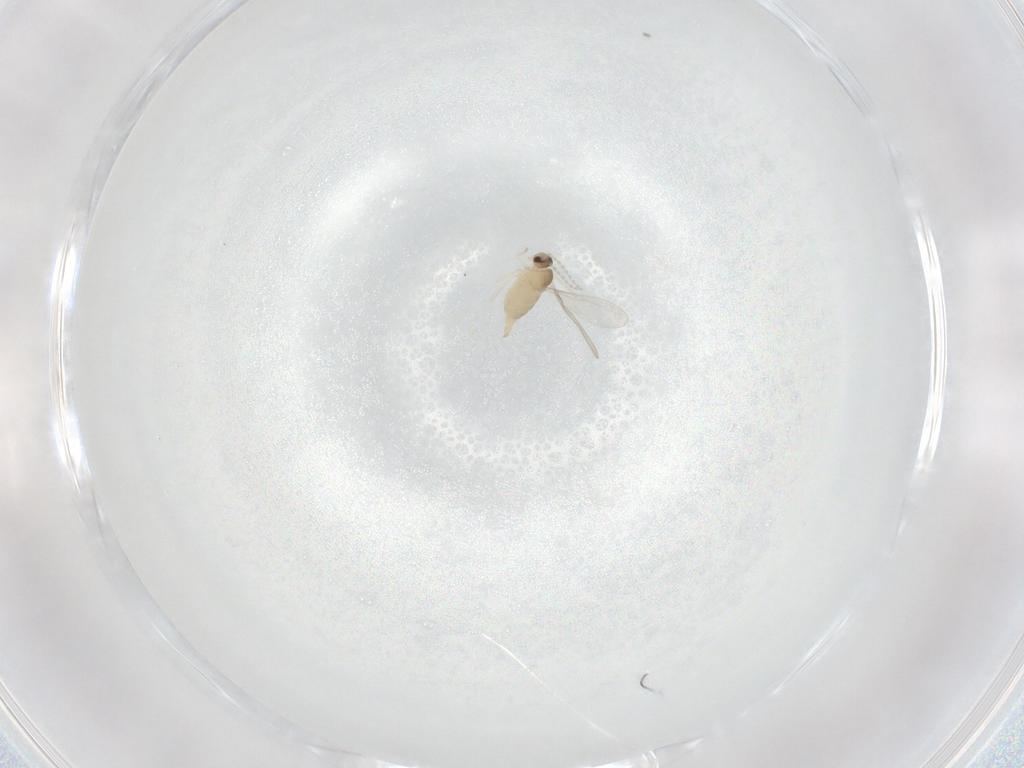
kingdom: Animalia
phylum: Arthropoda
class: Insecta
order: Diptera
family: Cecidomyiidae
